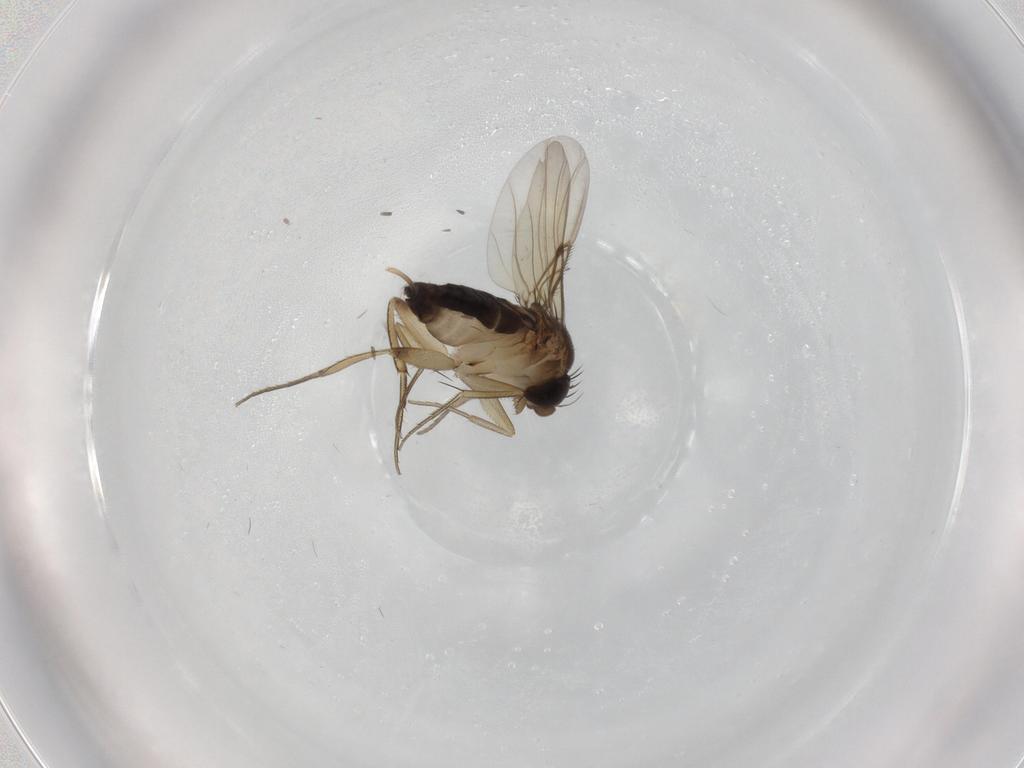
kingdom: Animalia
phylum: Arthropoda
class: Insecta
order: Diptera
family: Phoridae
